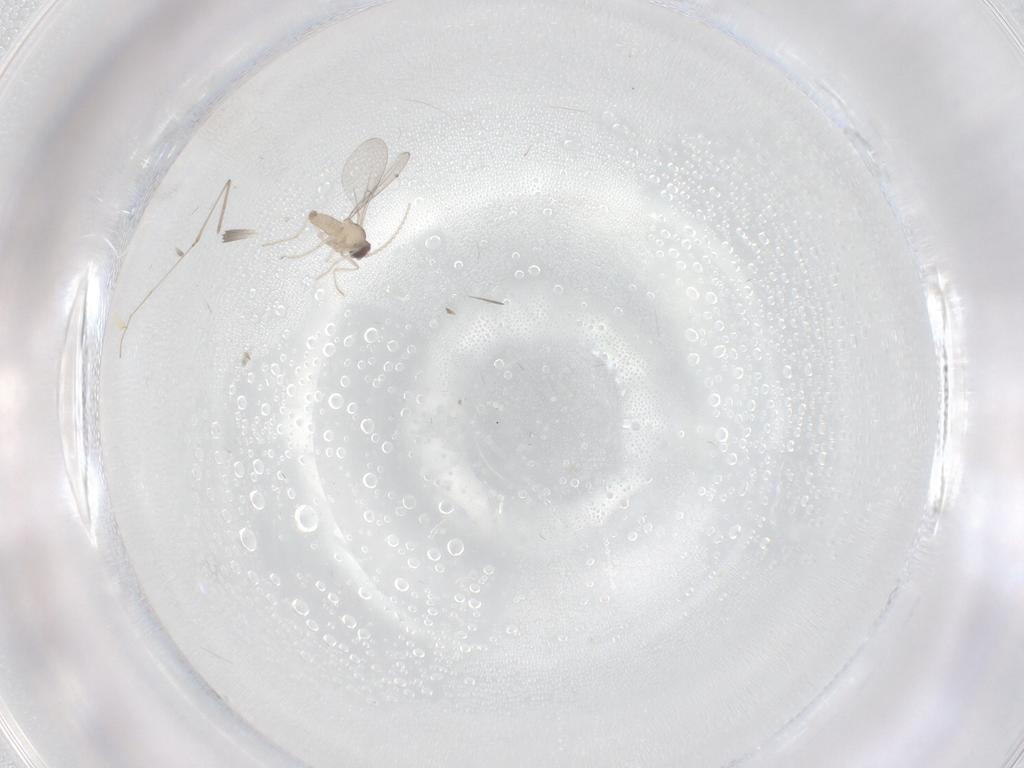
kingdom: Animalia
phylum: Arthropoda
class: Insecta
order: Diptera
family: Cecidomyiidae
